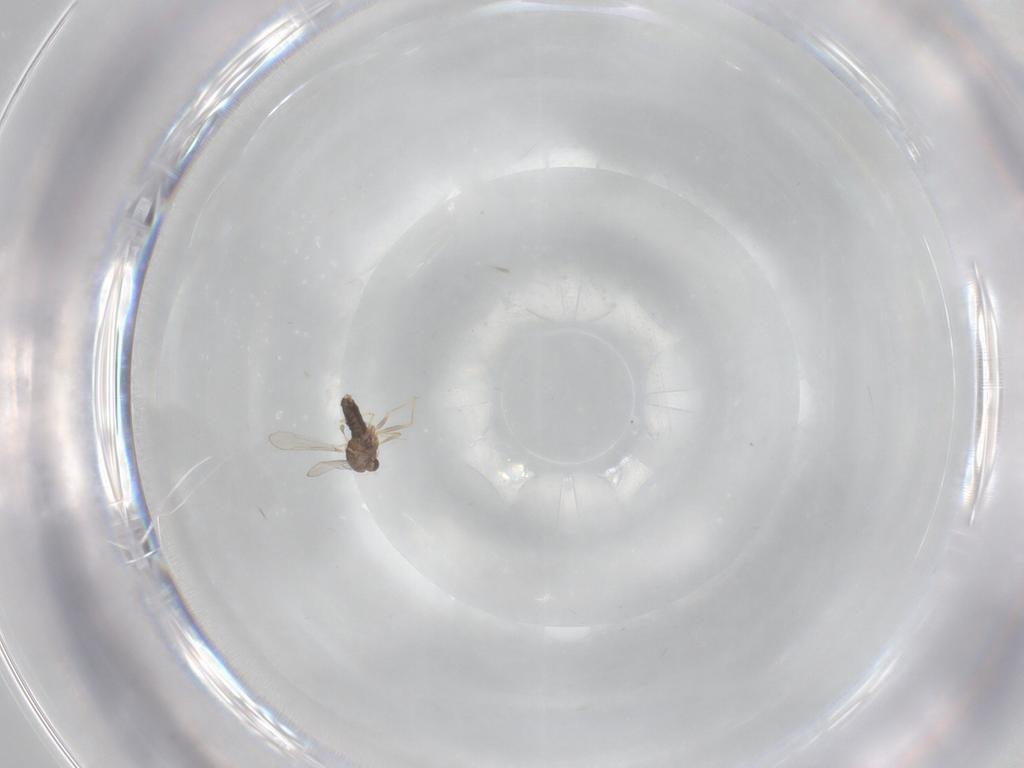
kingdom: Animalia
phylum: Arthropoda
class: Insecta
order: Diptera
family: Chironomidae
